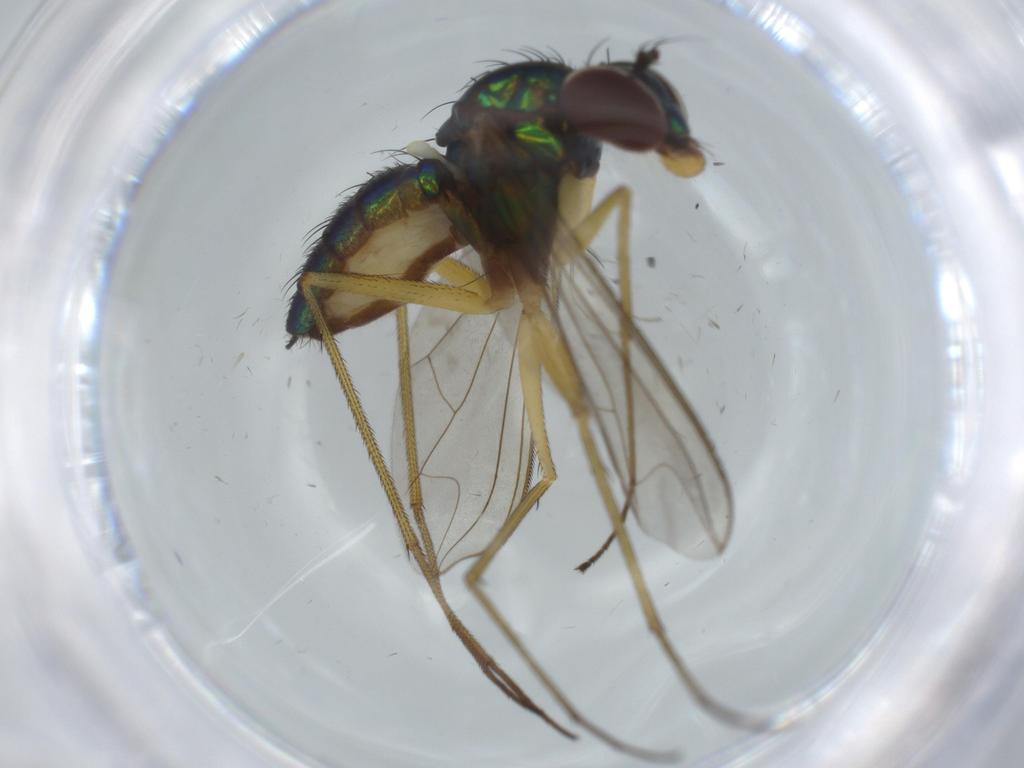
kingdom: Animalia
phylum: Arthropoda
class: Insecta
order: Diptera
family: Dolichopodidae
